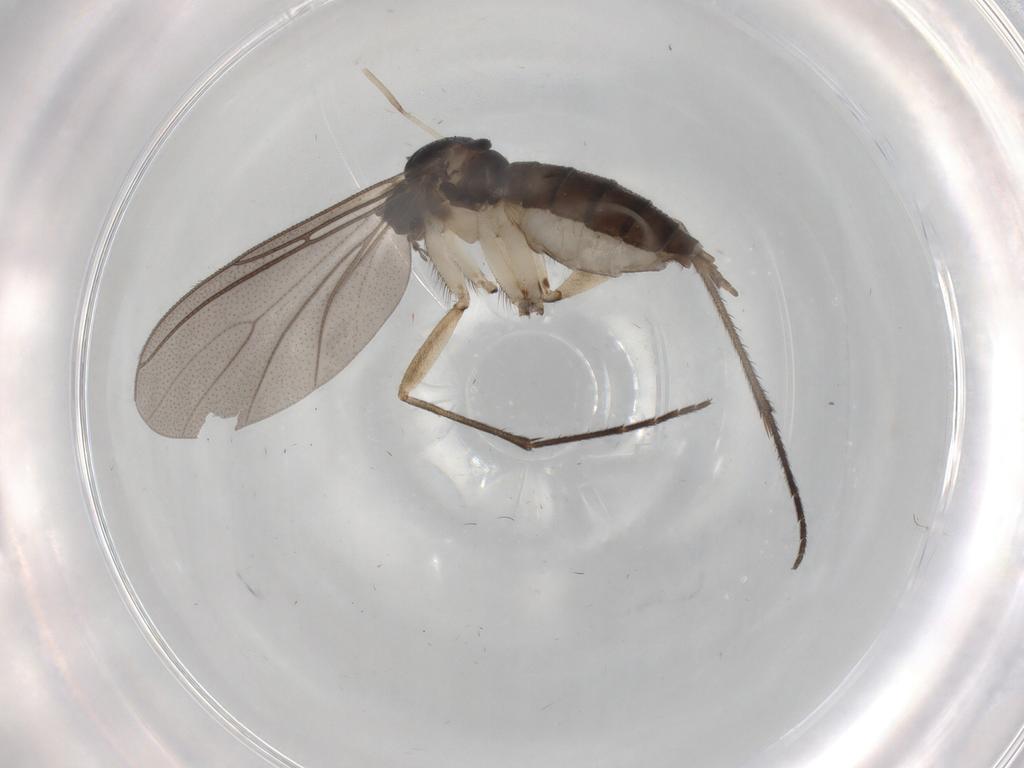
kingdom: Animalia
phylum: Arthropoda
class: Insecta
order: Diptera
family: Sciaridae
